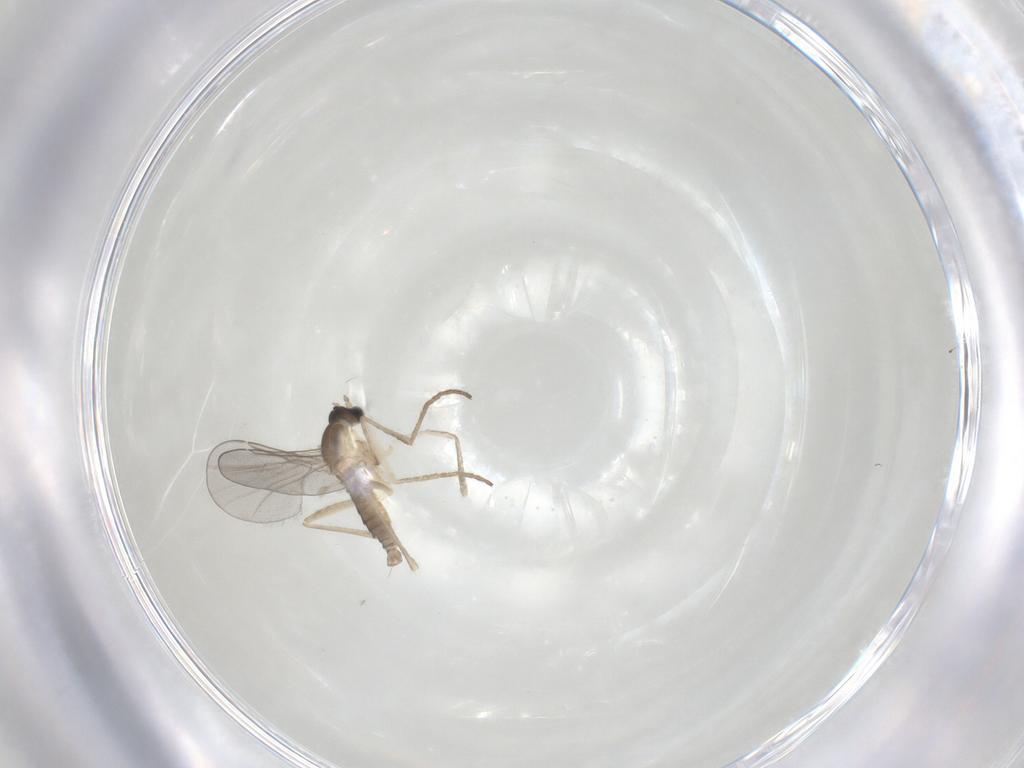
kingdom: Animalia
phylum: Arthropoda
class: Insecta
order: Diptera
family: Cecidomyiidae
